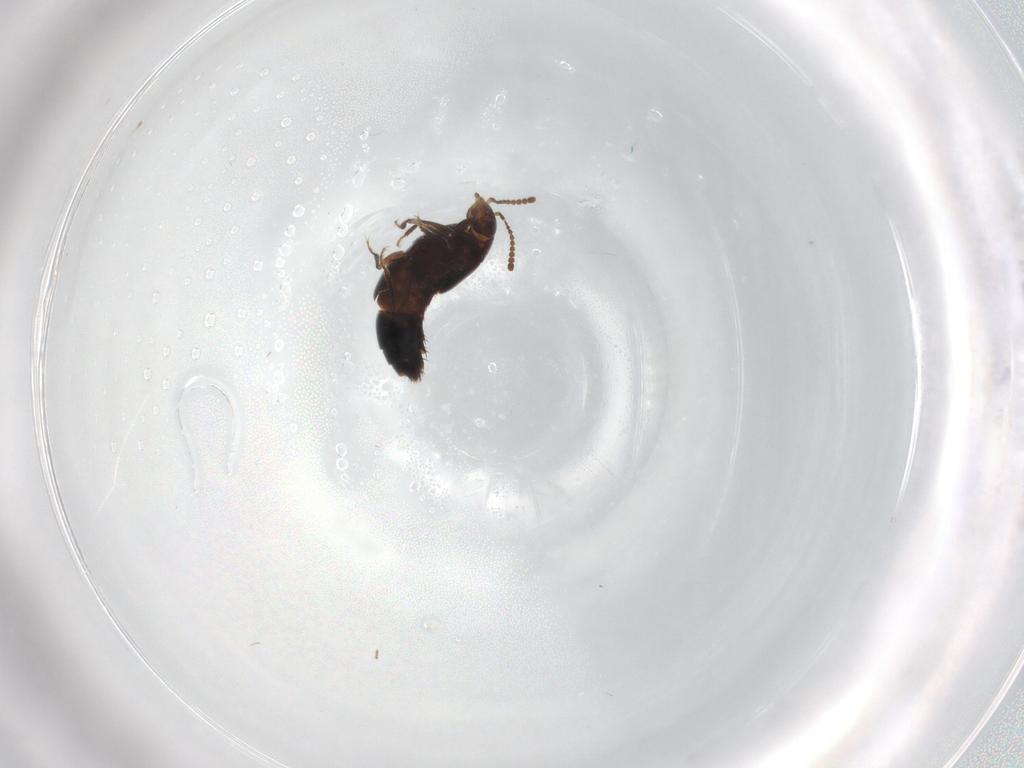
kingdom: Animalia
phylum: Arthropoda
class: Insecta
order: Coleoptera
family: Staphylinidae
